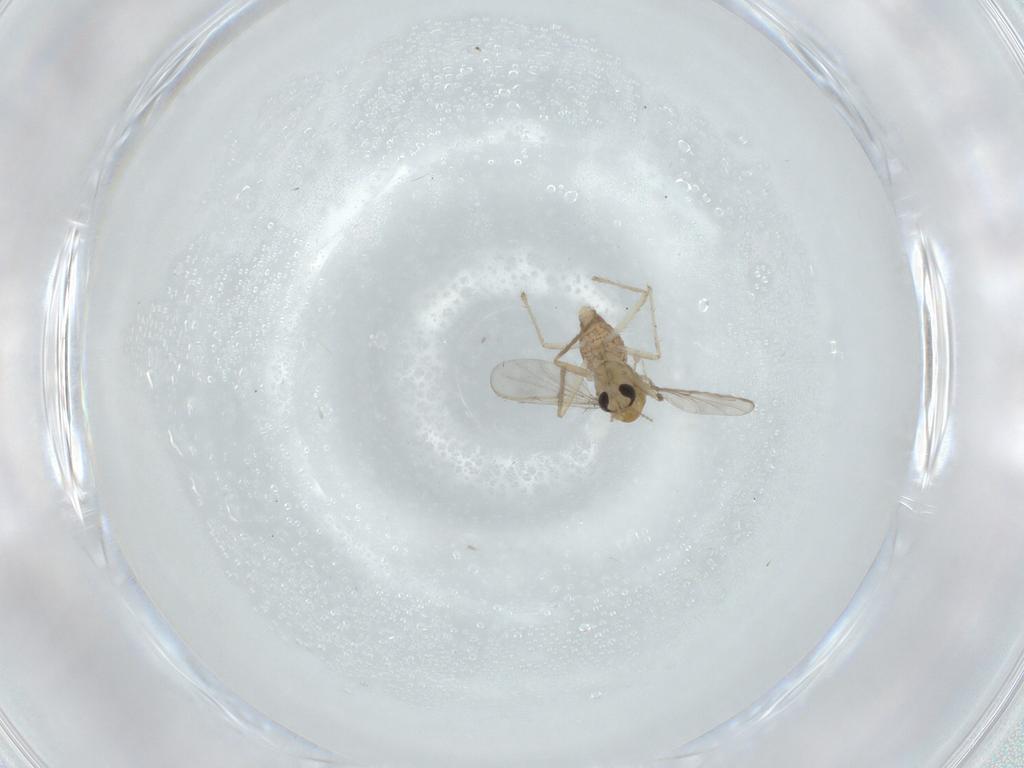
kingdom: Animalia
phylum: Arthropoda
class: Insecta
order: Diptera
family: Chironomidae
